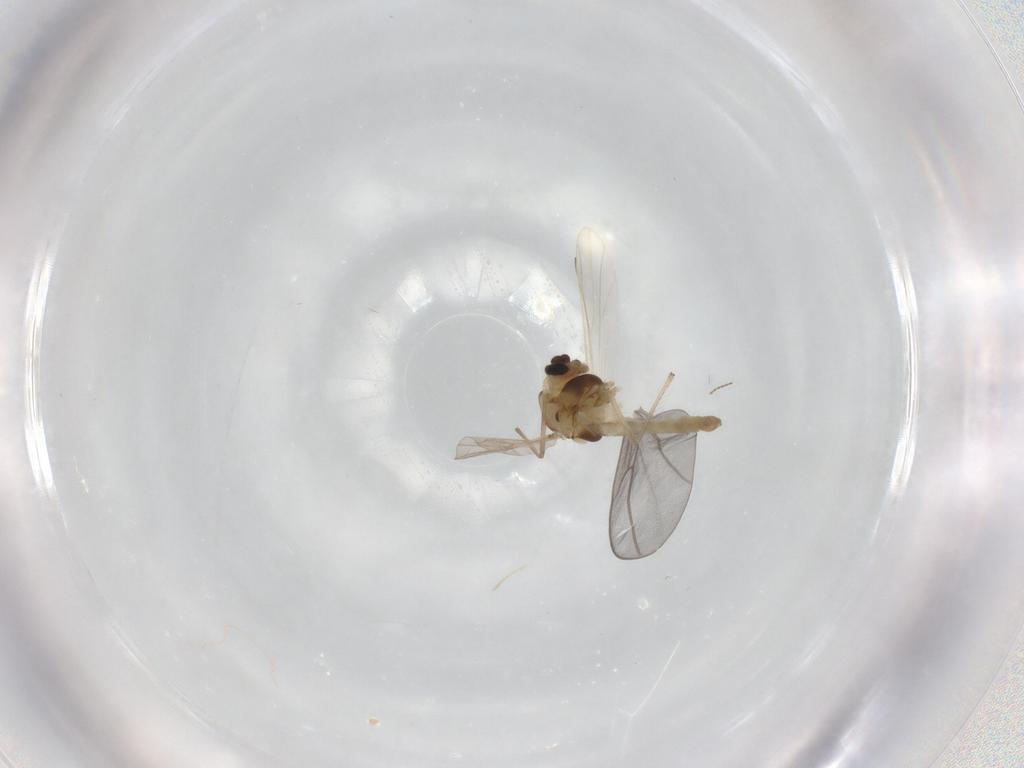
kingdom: Animalia
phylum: Arthropoda
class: Insecta
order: Diptera
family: Chironomidae
